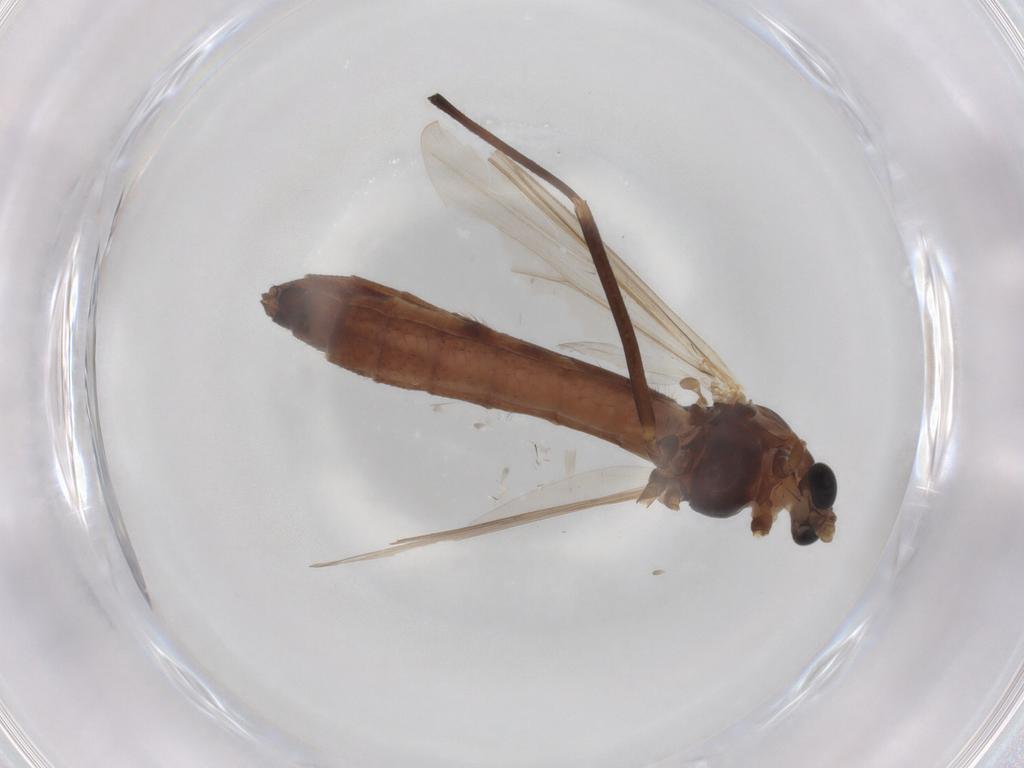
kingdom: Animalia
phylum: Arthropoda
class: Insecta
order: Diptera
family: Chironomidae
